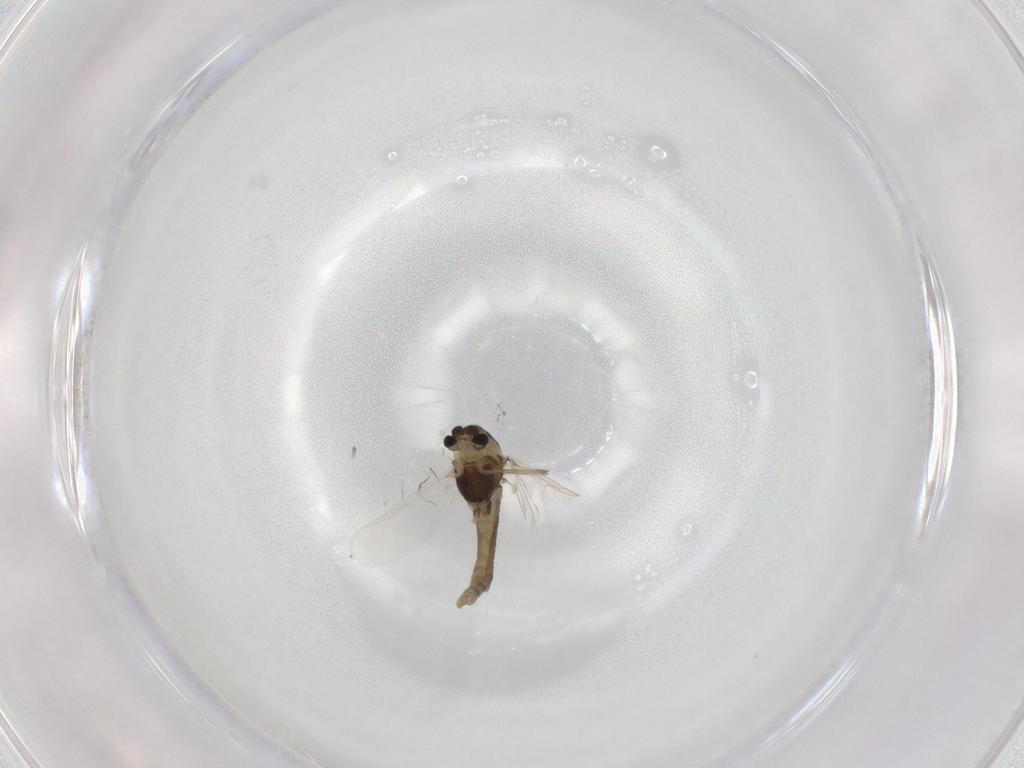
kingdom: Animalia
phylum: Arthropoda
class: Insecta
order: Diptera
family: Chironomidae
